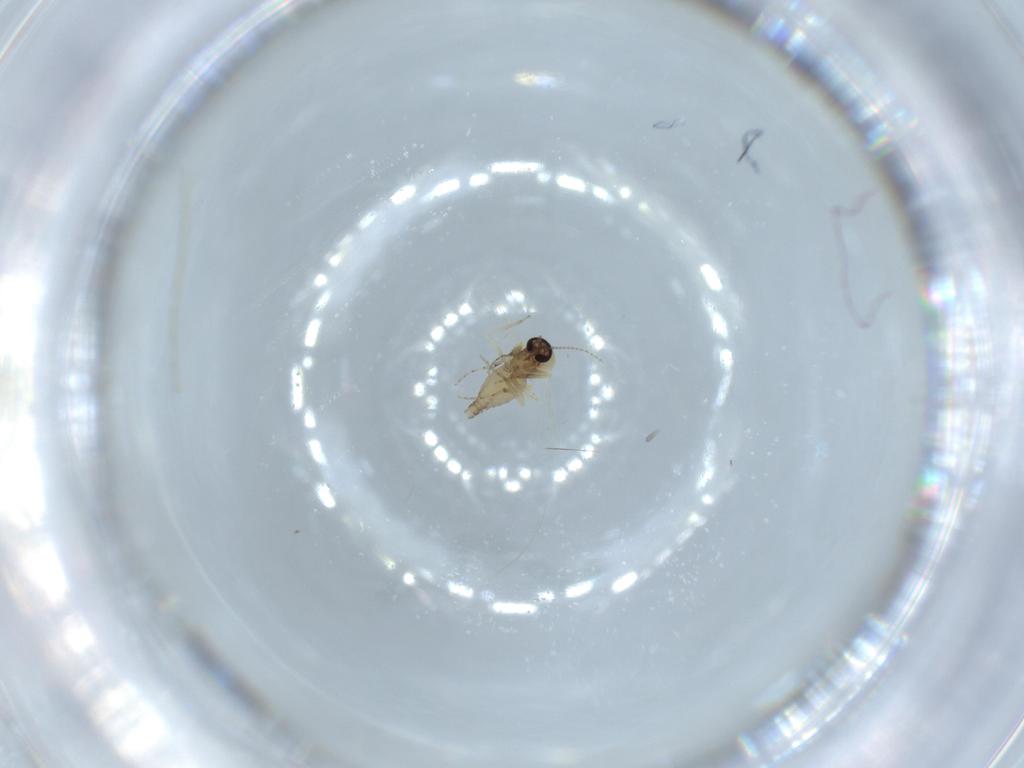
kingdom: Animalia
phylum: Arthropoda
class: Insecta
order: Diptera
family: Ceratopogonidae
